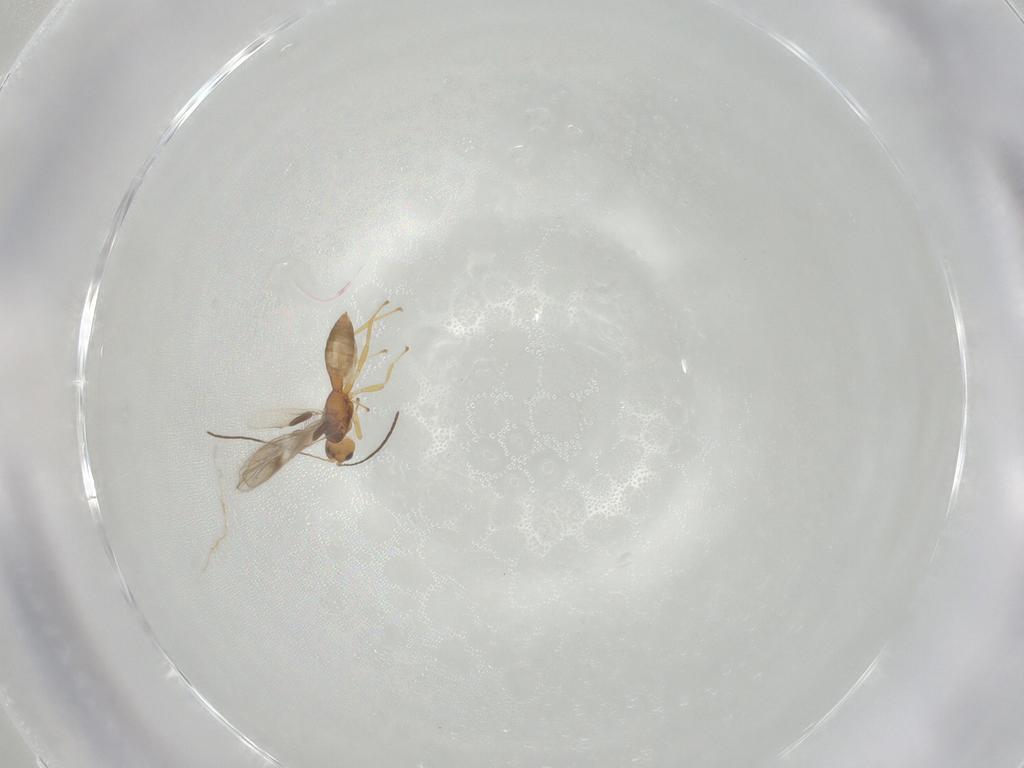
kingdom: Animalia
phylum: Arthropoda
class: Insecta
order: Hymenoptera
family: Braconidae
